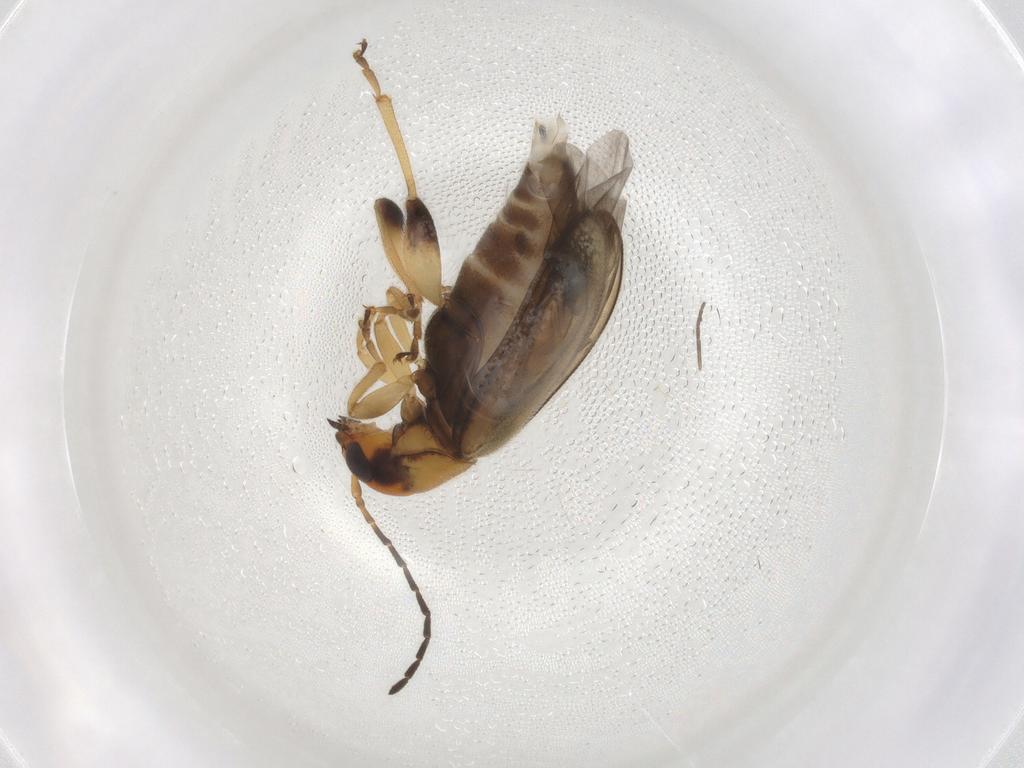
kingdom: Animalia
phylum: Arthropoda
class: Insecta
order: Coleoptera
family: Chrysomelidae
